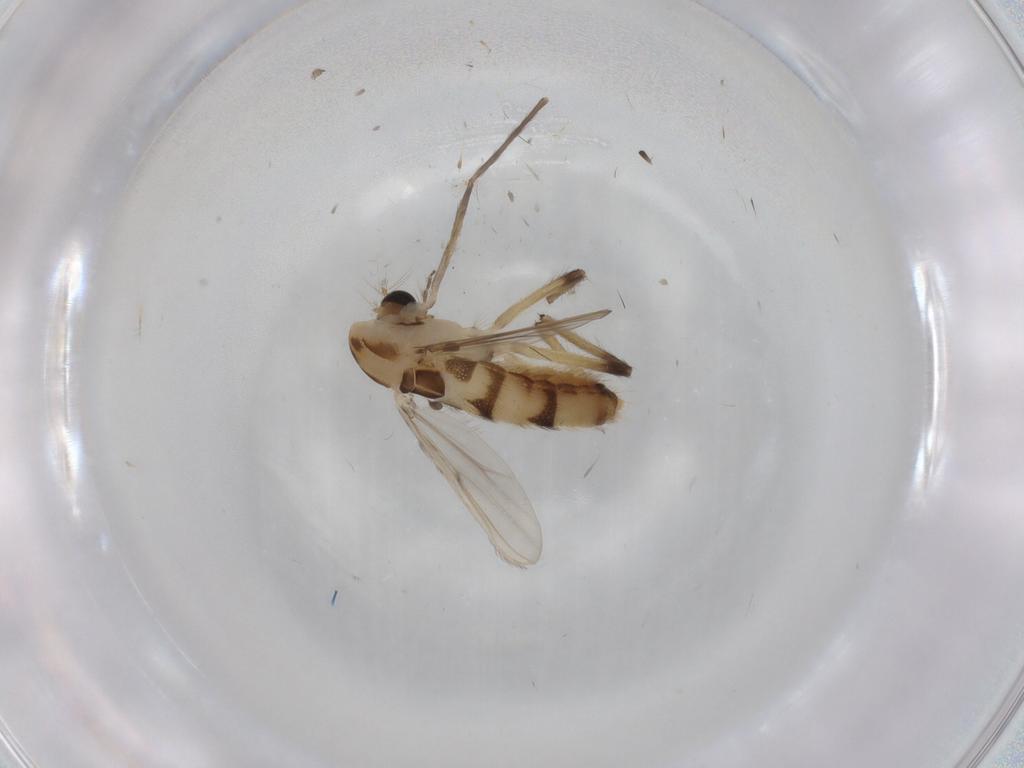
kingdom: Animalia
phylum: Arthropoda
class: Insecta
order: Diptera
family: Chironomidae
